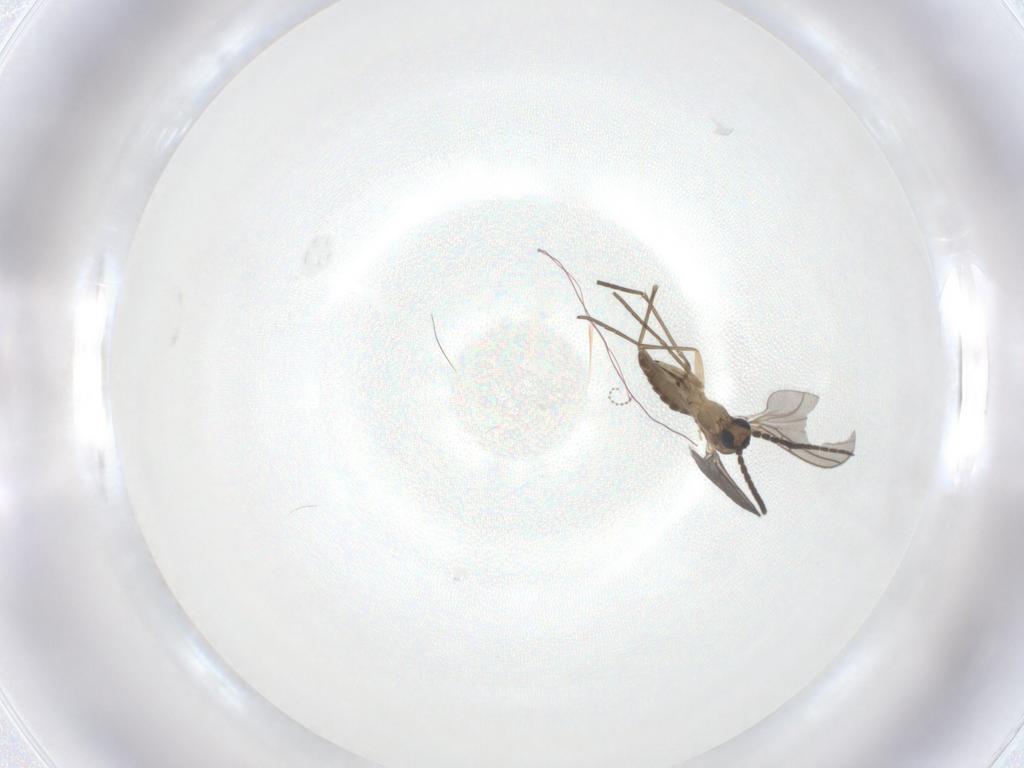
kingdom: Animalia
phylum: Arthropoda
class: Insecta
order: Diptera
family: Sciaridae
